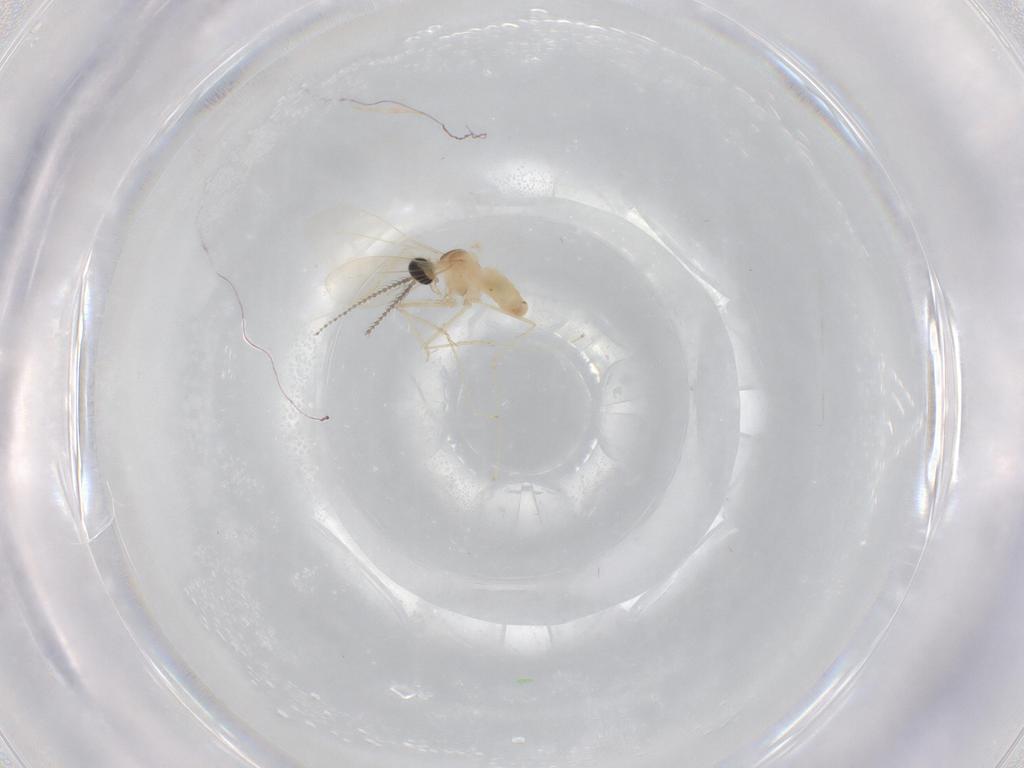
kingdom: Animalia
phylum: Arthropoda
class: Insecta
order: Diptera
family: Cecidomyiidae
